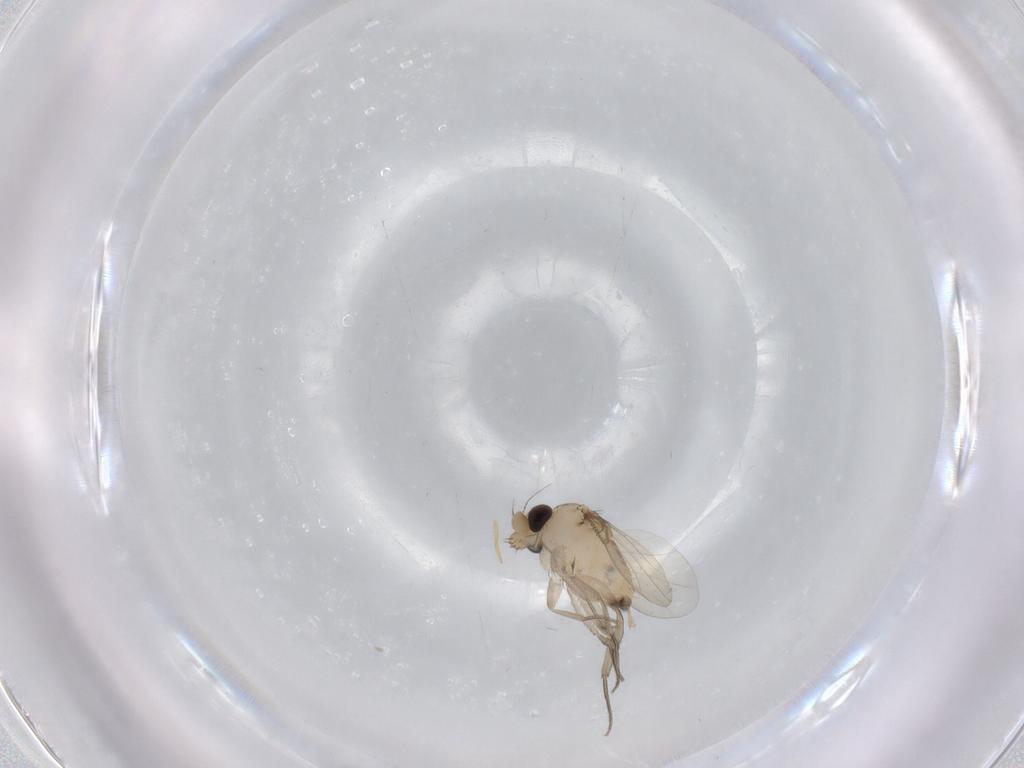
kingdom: Animalia
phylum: Arthropoda
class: Insecta
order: Diptera
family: Phoridae
